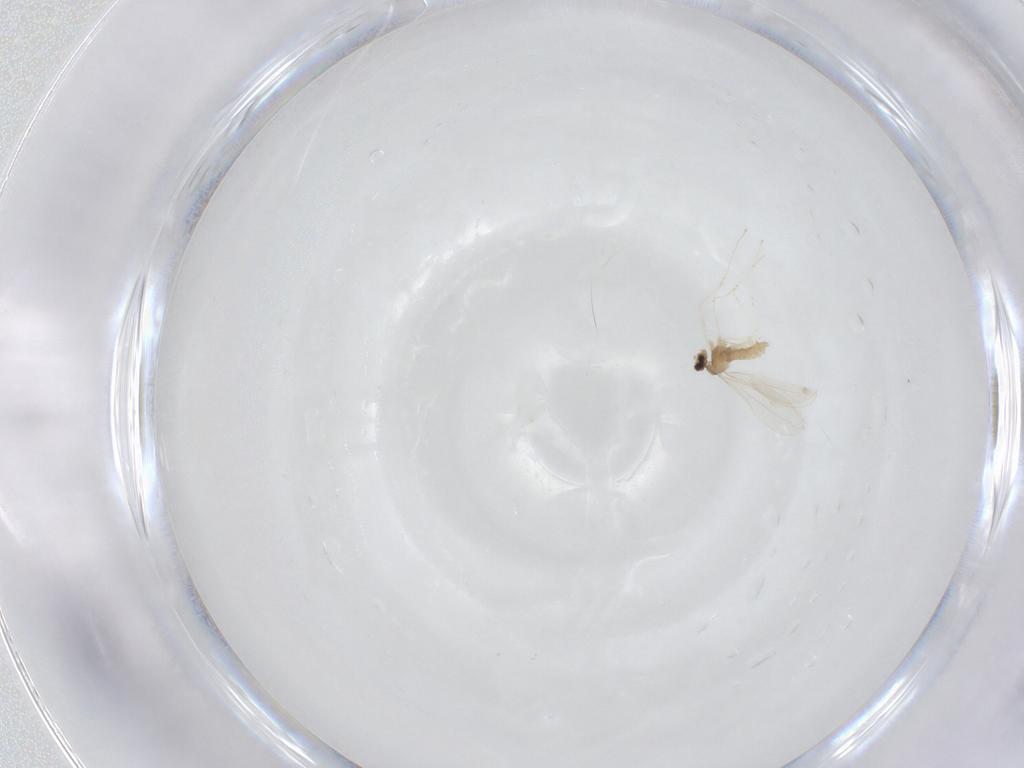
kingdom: Animalia
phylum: Arthropoda
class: Insecta
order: Diptera
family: Cecidomyiidae
